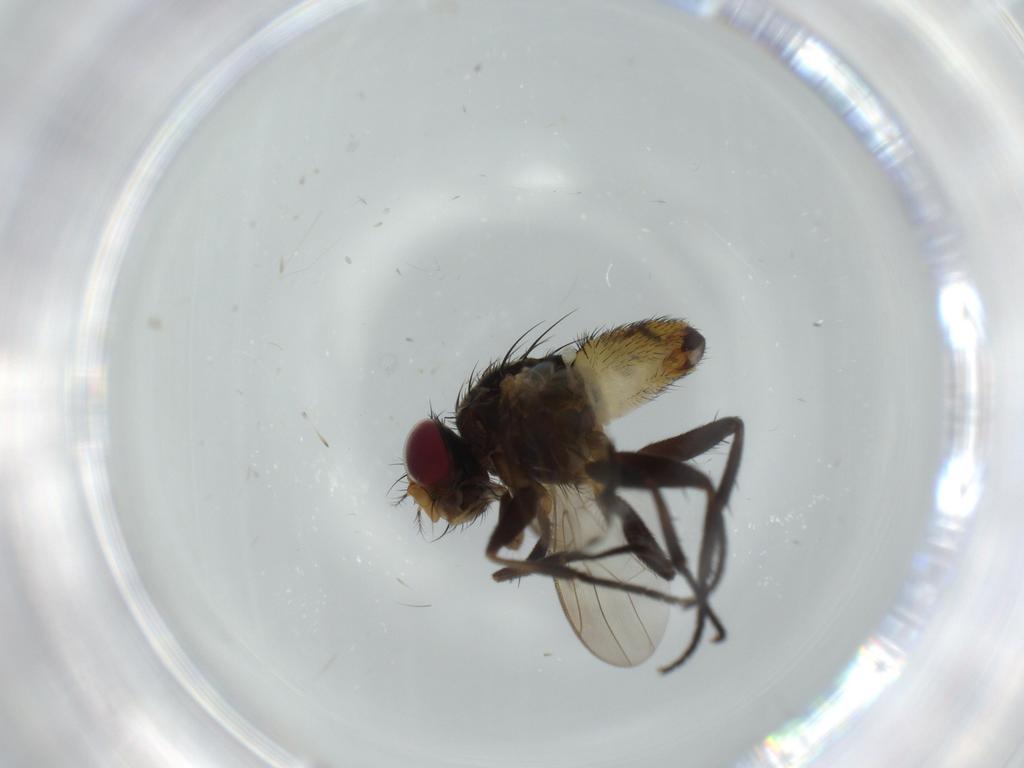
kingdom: Animalia
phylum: Arthropoda
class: Insecta
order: Diptera
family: Anthomyiidae
